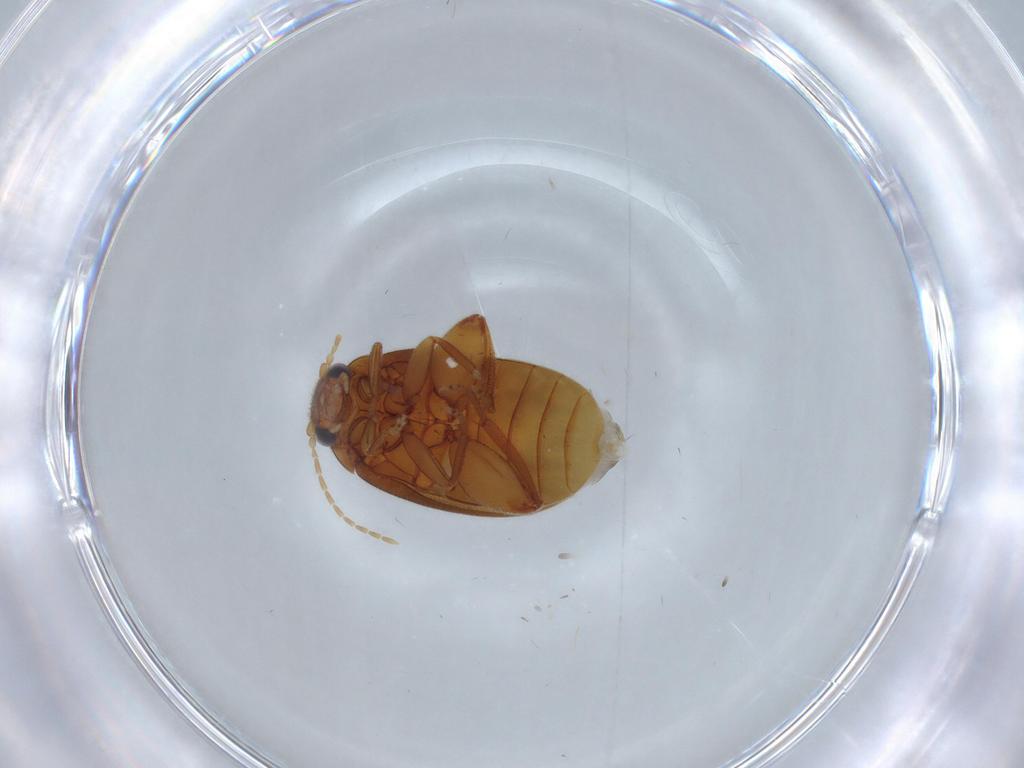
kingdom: Animalia
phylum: Arthropoda
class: Insecta
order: Coleoptera
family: Scirtidae
